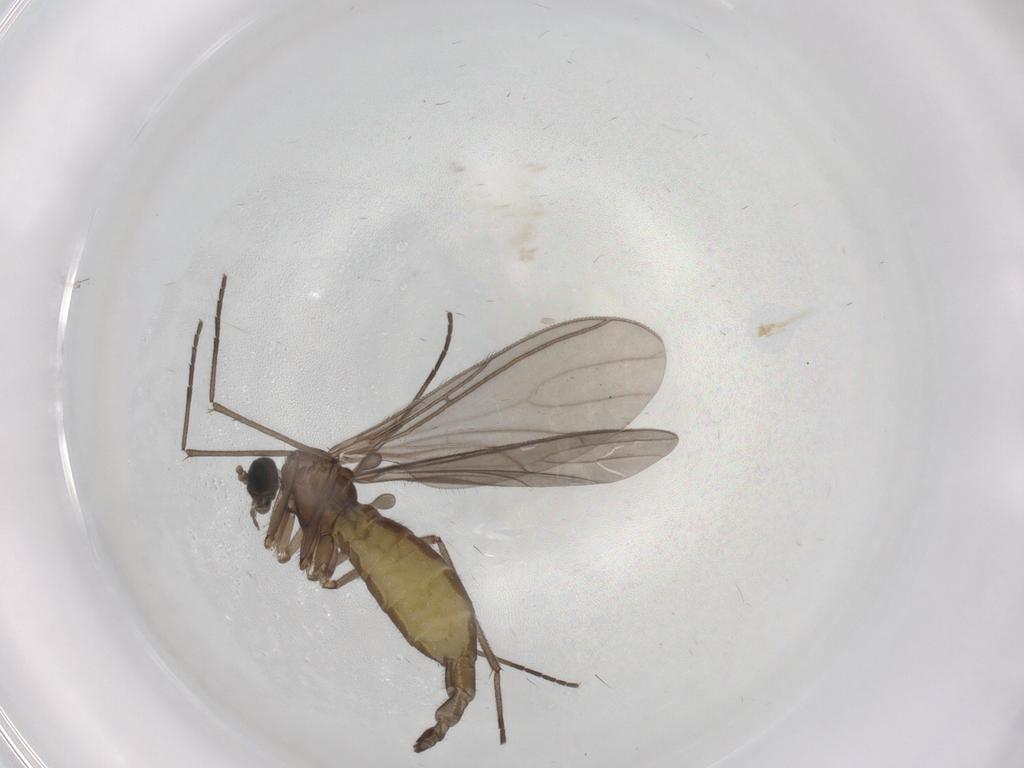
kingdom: Animalia
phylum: Arthropoda
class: Insecta
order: Diptera
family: Sciaridae
